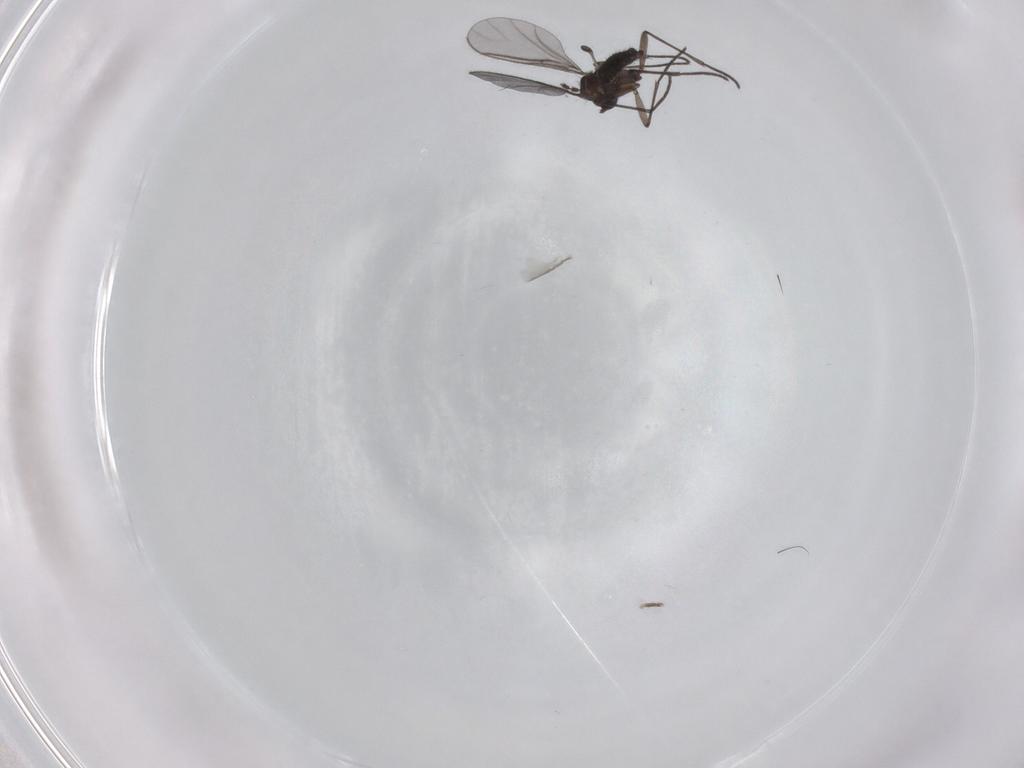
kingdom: Animalia
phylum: Arthropoda
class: Insecta
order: Diptera
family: Phoridae
